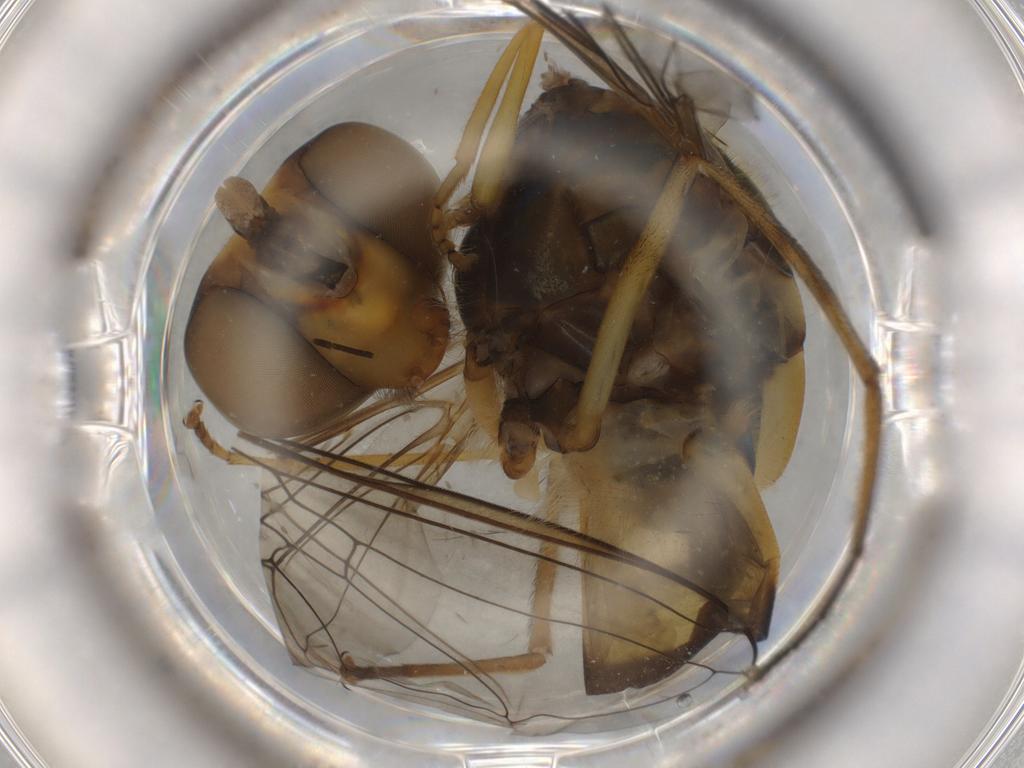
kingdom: Animalia
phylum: Arthropoda
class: Insecta
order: Diptera
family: Syrphidae
